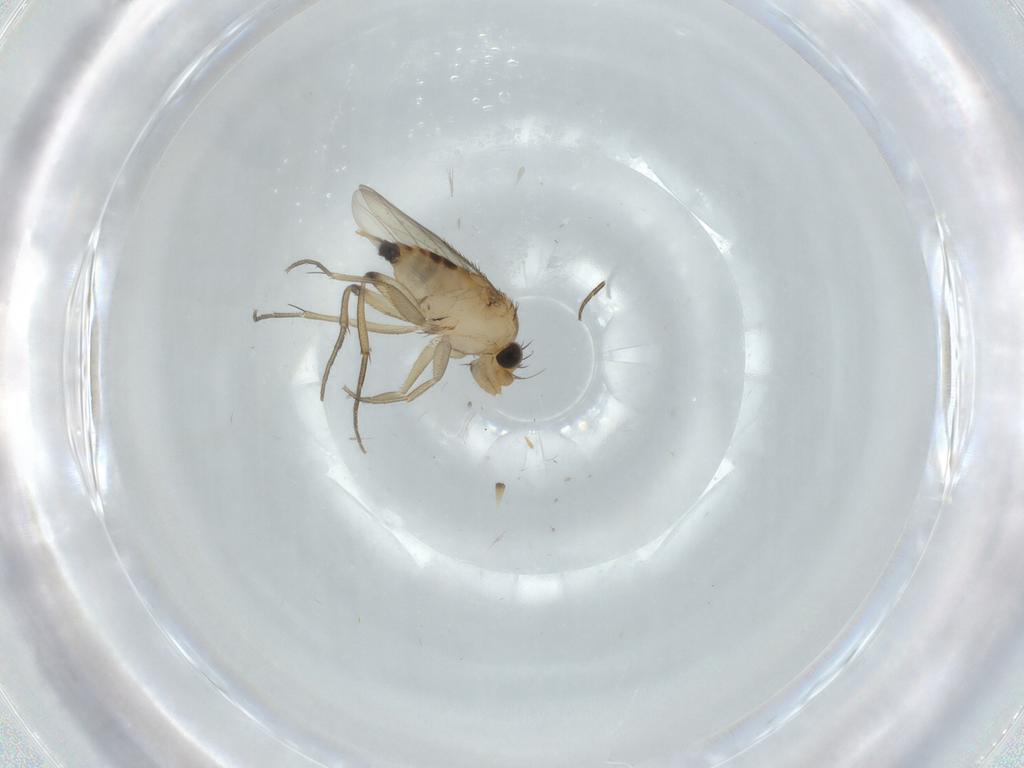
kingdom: Animalia
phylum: Arthropoda
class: Insecta
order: Diptera
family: Phoridae
